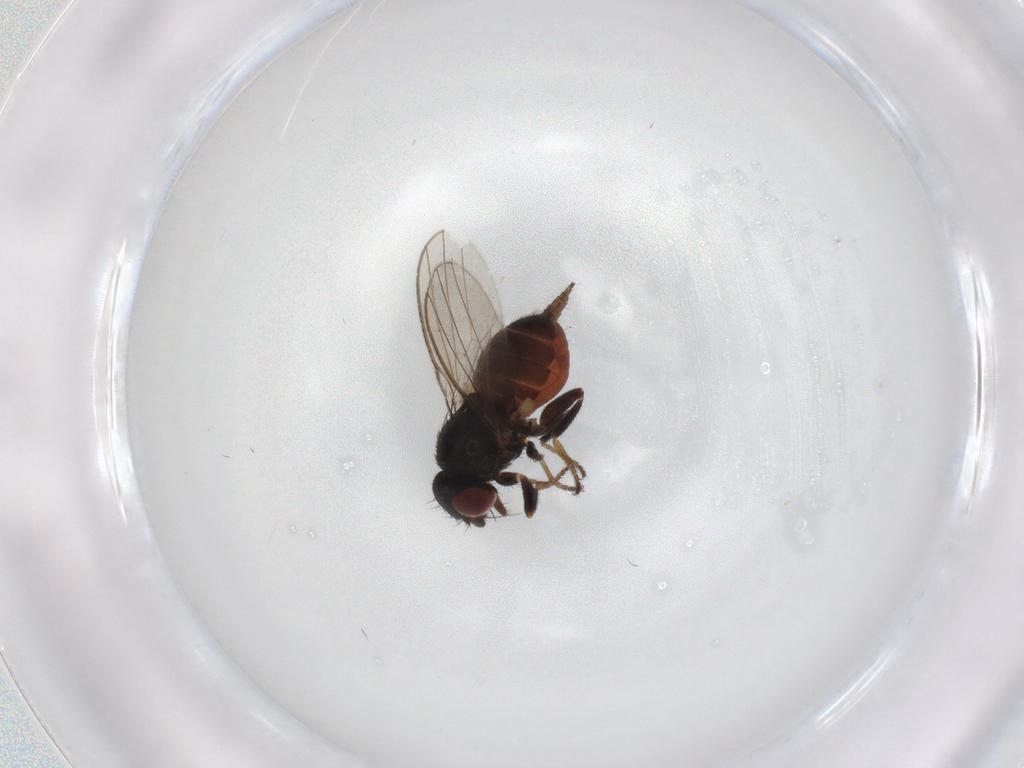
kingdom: Animalia
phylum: Arthropoda
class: Insecta
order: Diptera
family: Milichiidae
